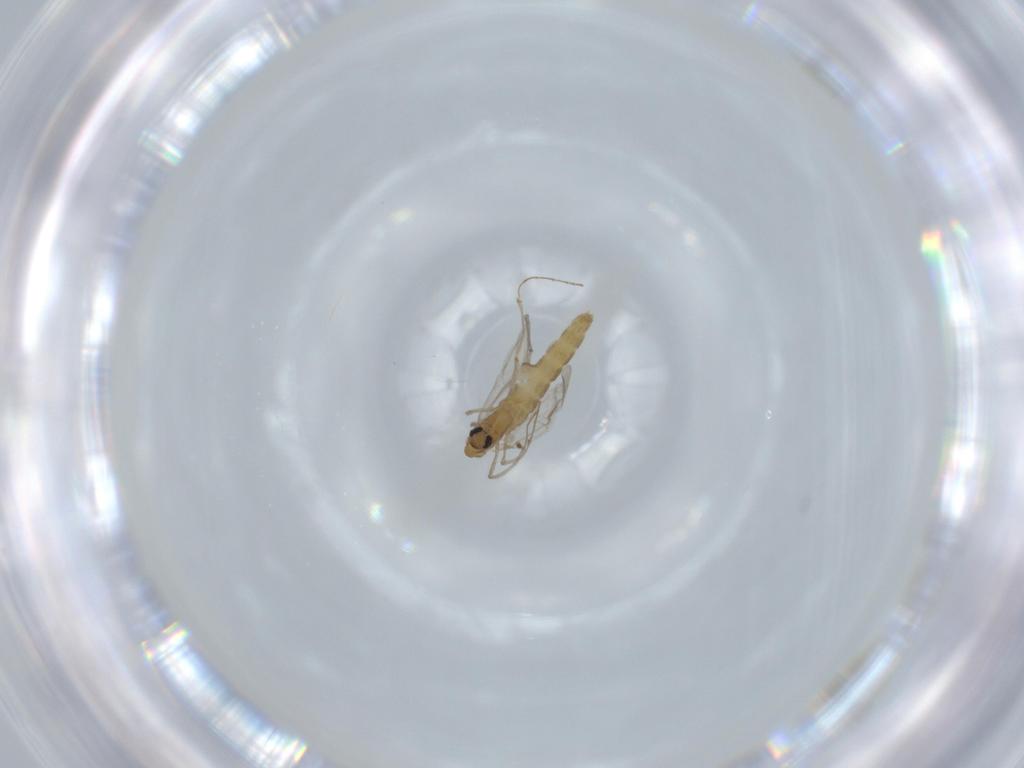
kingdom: Animalia
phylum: Arthropoda
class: Insecta
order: Diptera
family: Chironomidae
